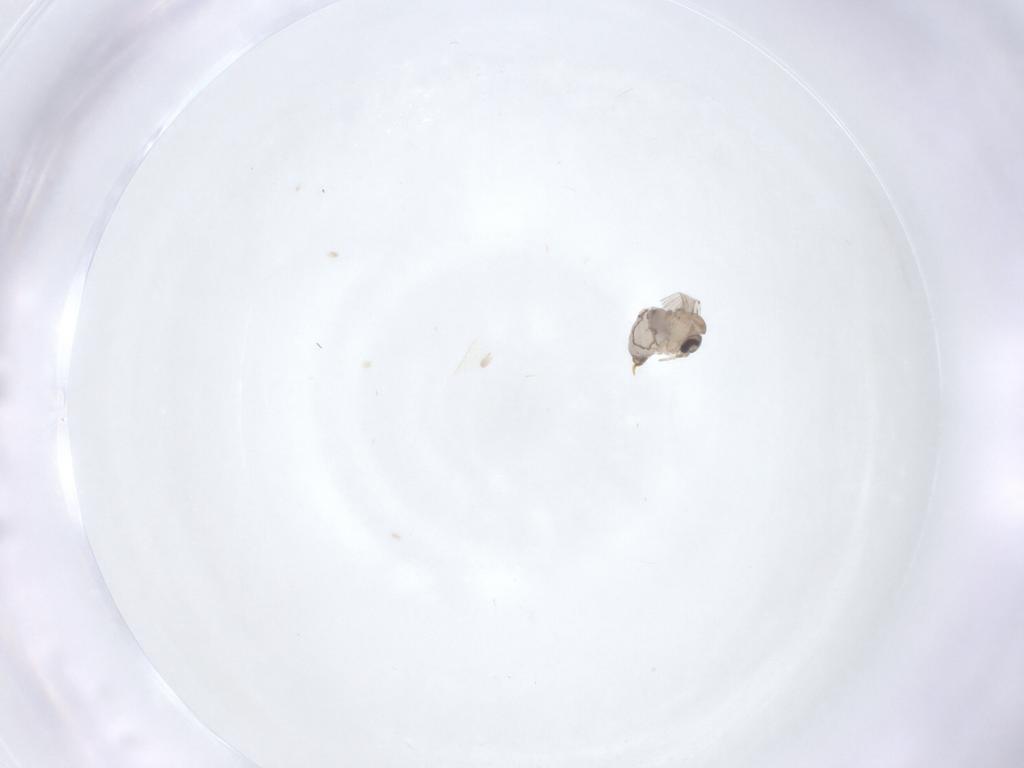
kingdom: Animalia
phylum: Arthropoda
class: Insecta
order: Diptera
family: Psychodidae
